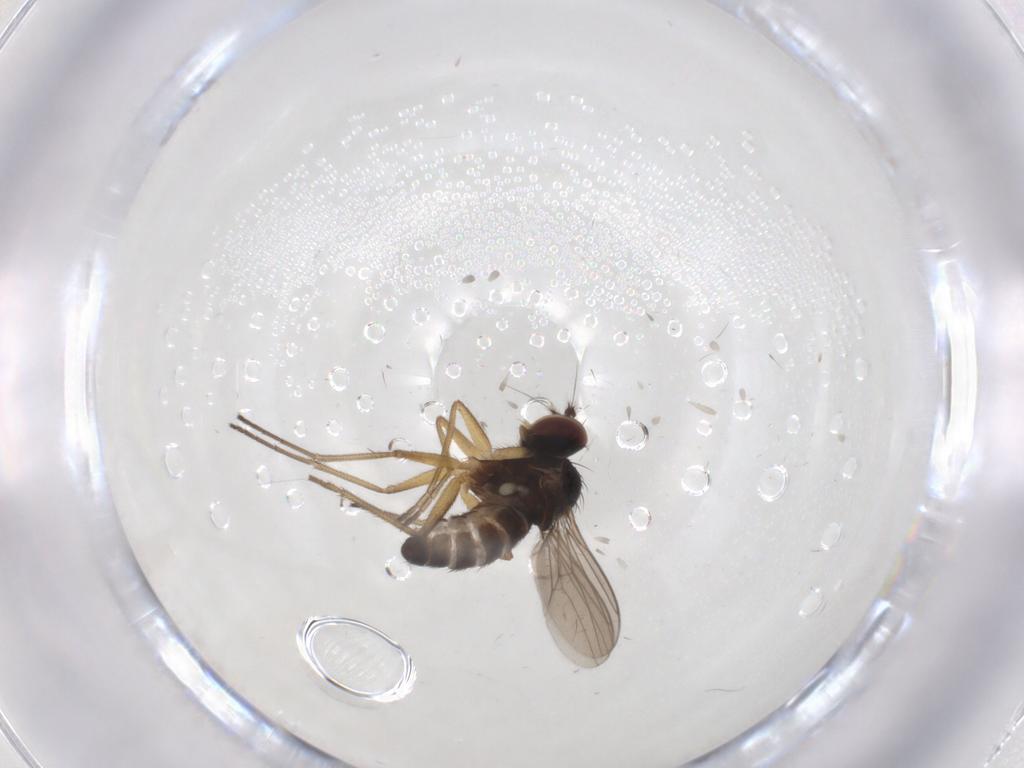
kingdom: Animalia
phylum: Arthropoda
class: Insecta
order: Diptera
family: Dolichopodidae
